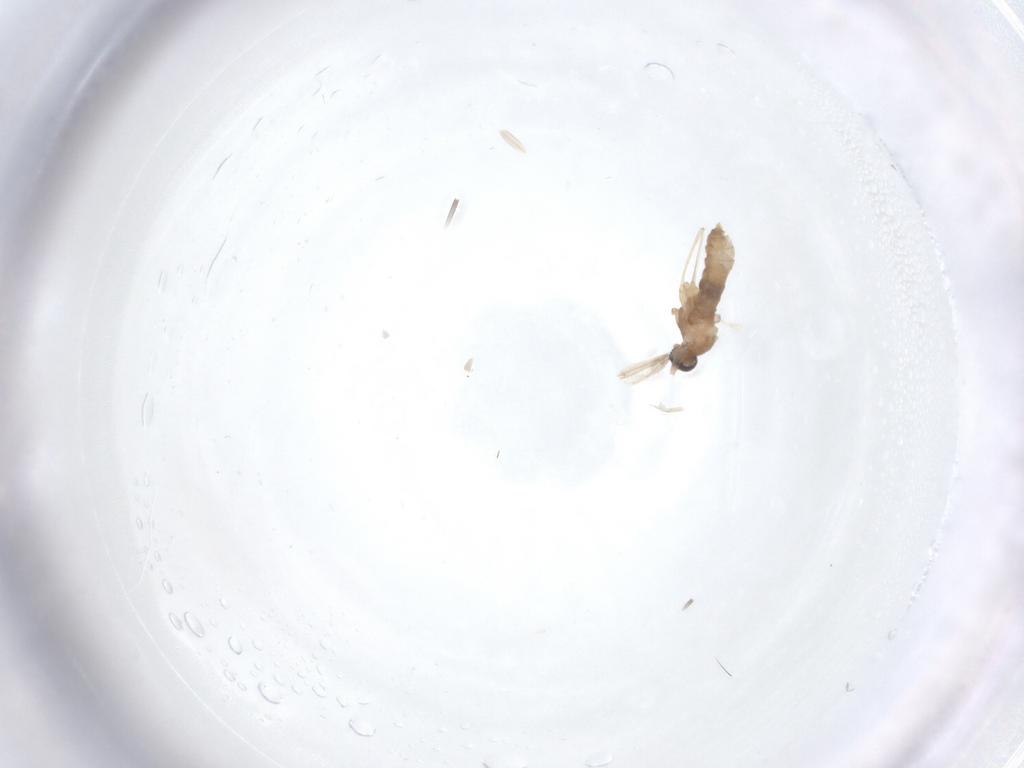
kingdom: Animalia
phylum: Arthropoda
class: Insecta
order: Diptera
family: Cecidomyiidae
